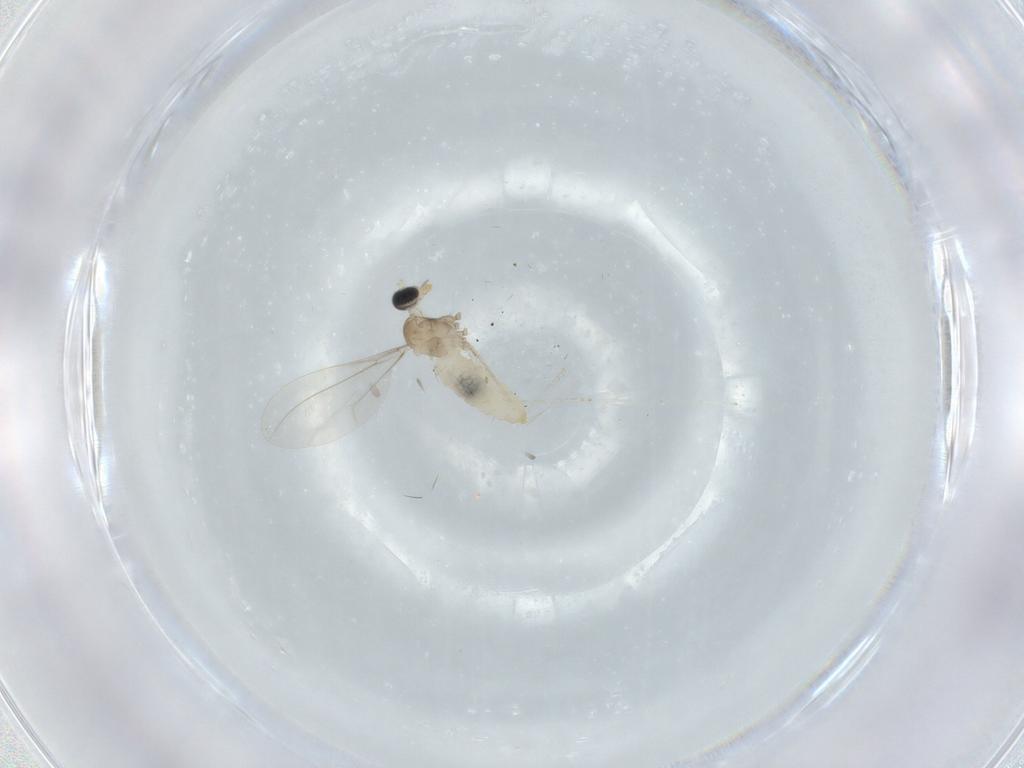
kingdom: Animalia
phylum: Arthropoda
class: Insecta
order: Diptera
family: Cecidomyiidae
